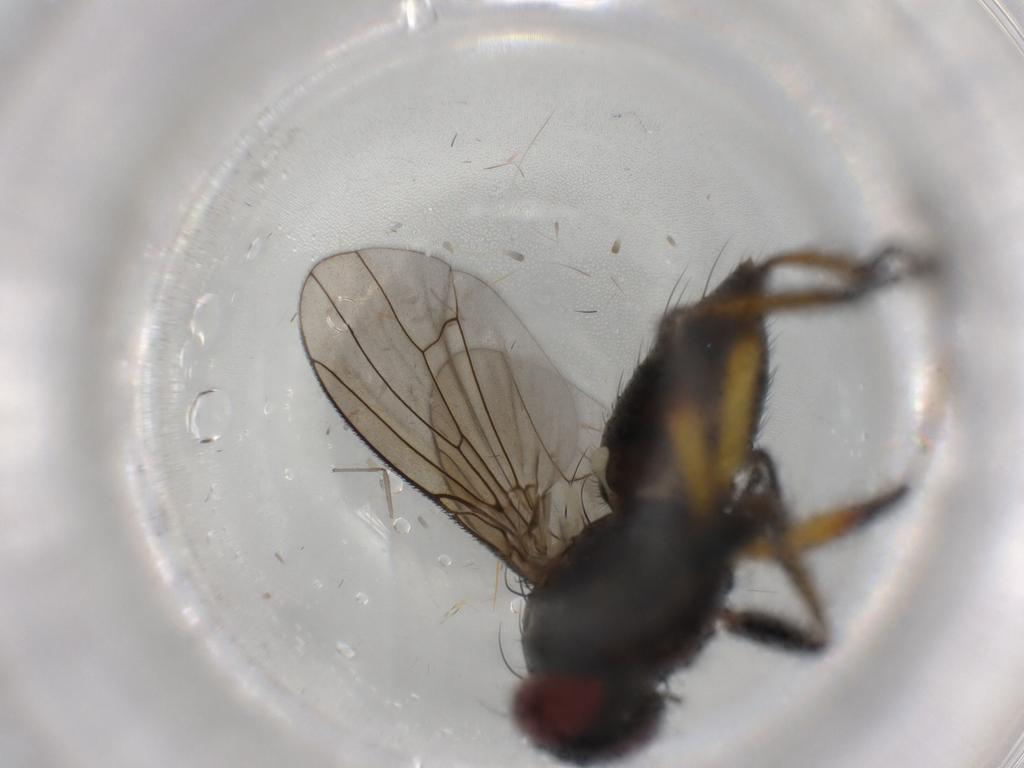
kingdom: Animalia
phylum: Arthropoda
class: Insecta
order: Diptera
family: Muscidae
